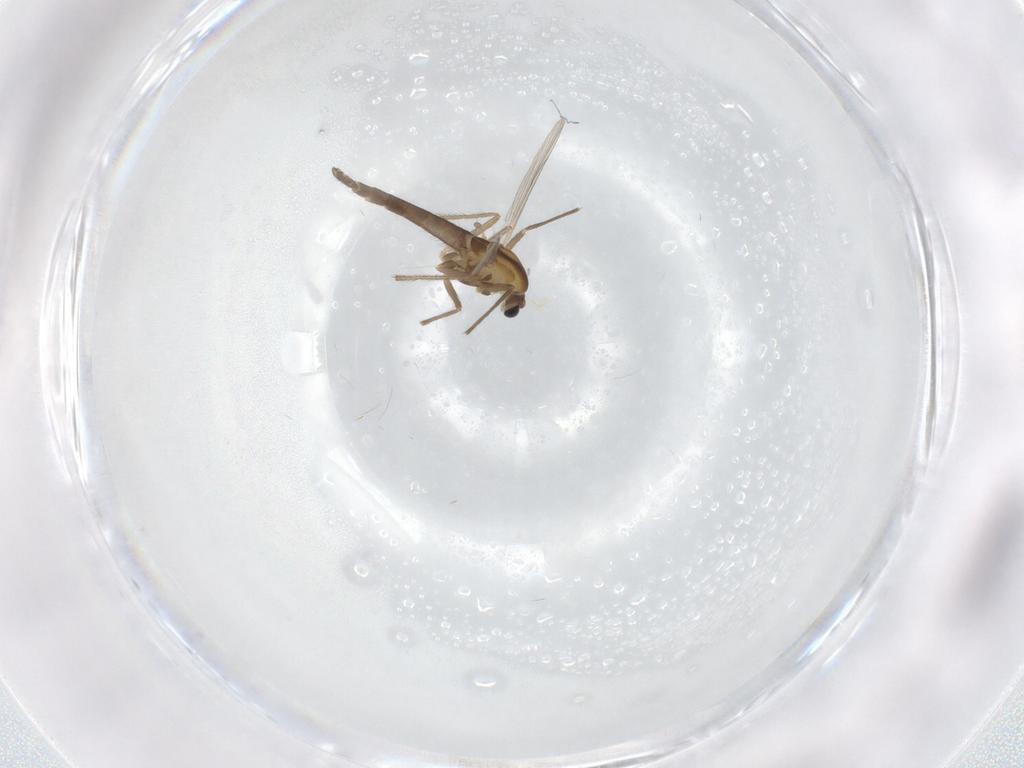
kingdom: Animalia
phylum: Arthropoda
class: Insecta
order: Diptera
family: Chironomidae
